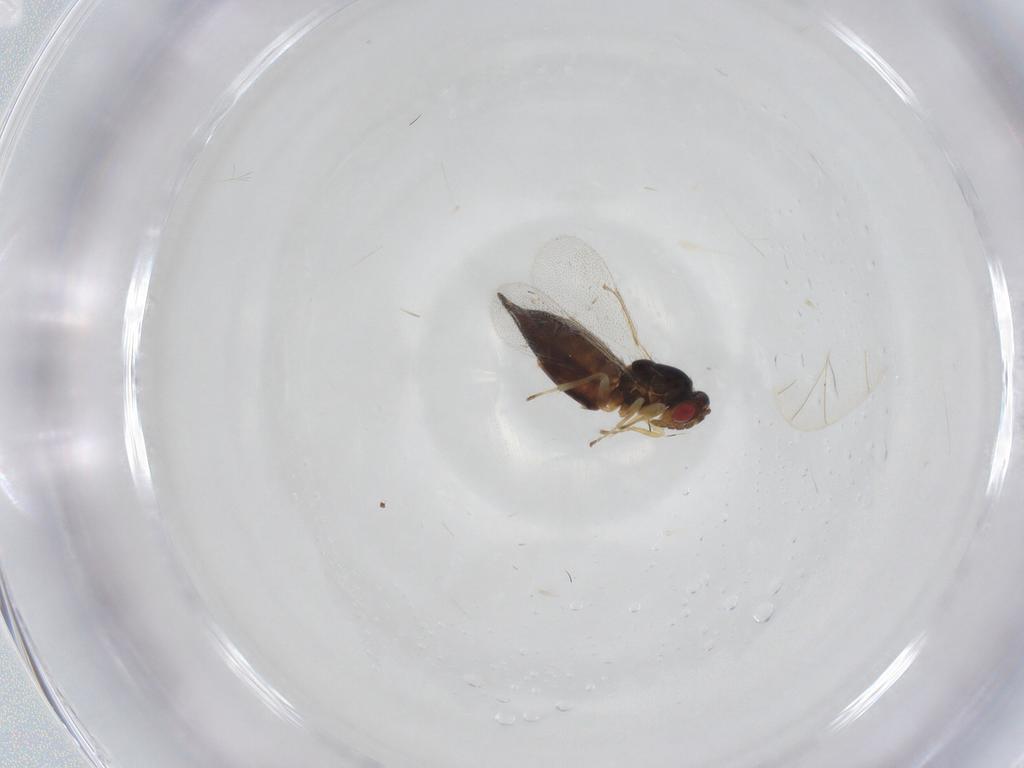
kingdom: Animalia
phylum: Arthropoda
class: Insecta
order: Hymenoptera
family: Eulophidae
